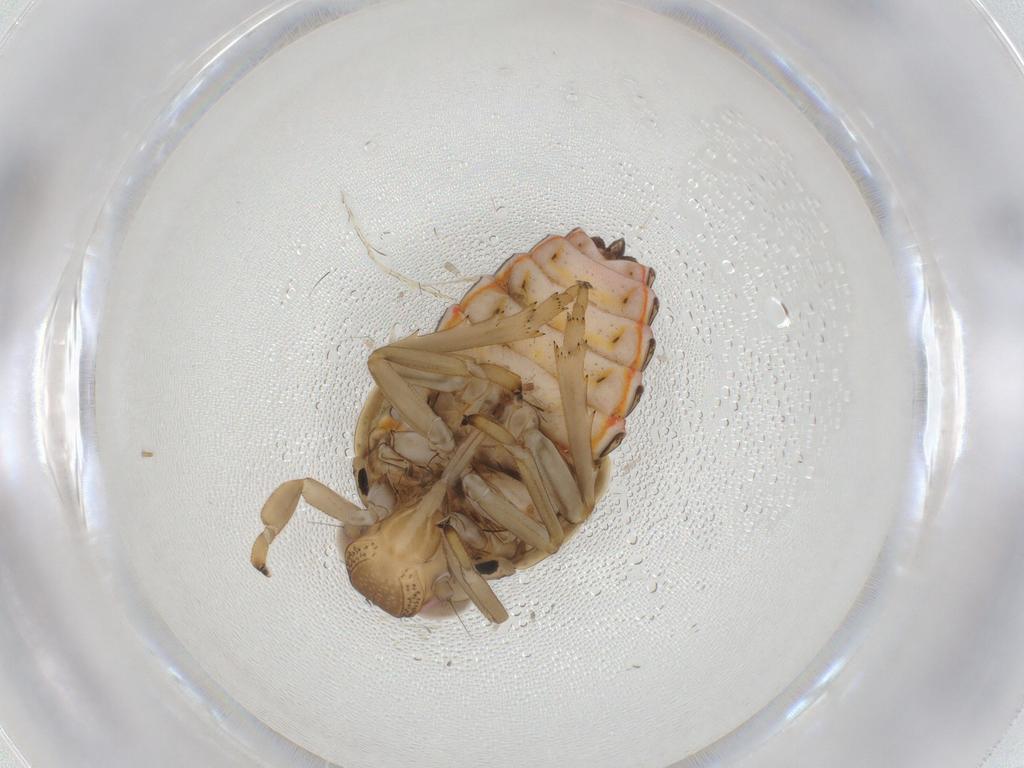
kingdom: Animalia
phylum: Arthropoda
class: Insecta
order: Hemiptera
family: Issidae
